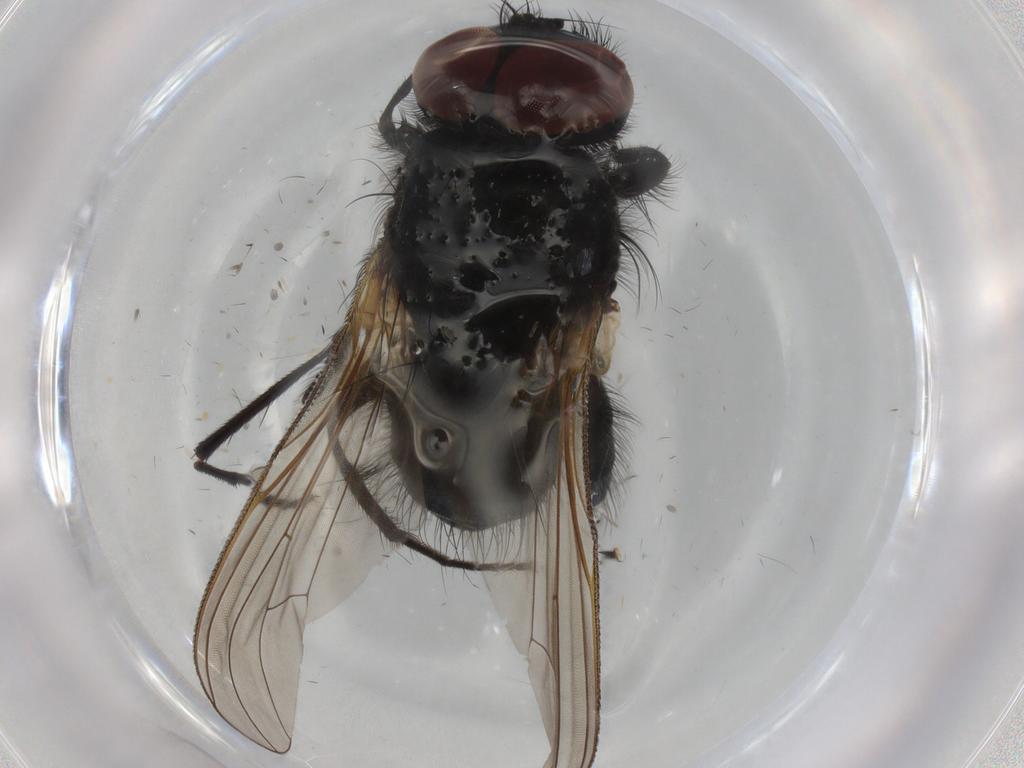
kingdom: Animalia
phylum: Arthropoda
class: Insecta
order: Diptera
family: Muscidae
